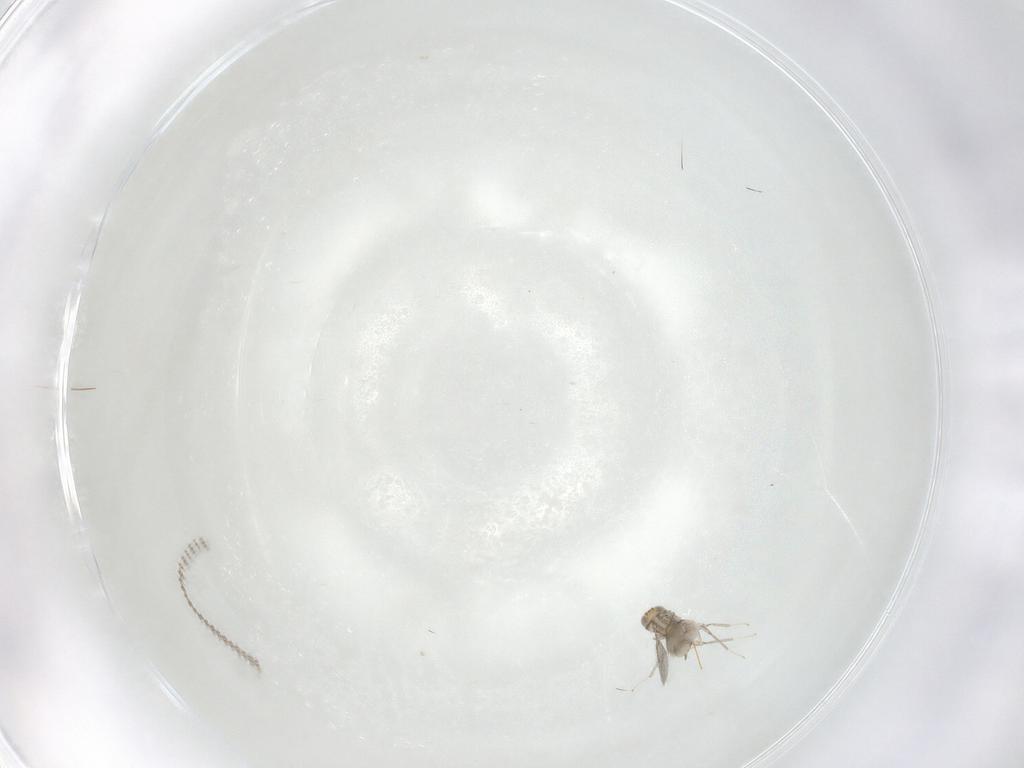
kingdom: Animalia
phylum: Arthropoda
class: Insecta
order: Hymenoptera
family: Aphelinidae
